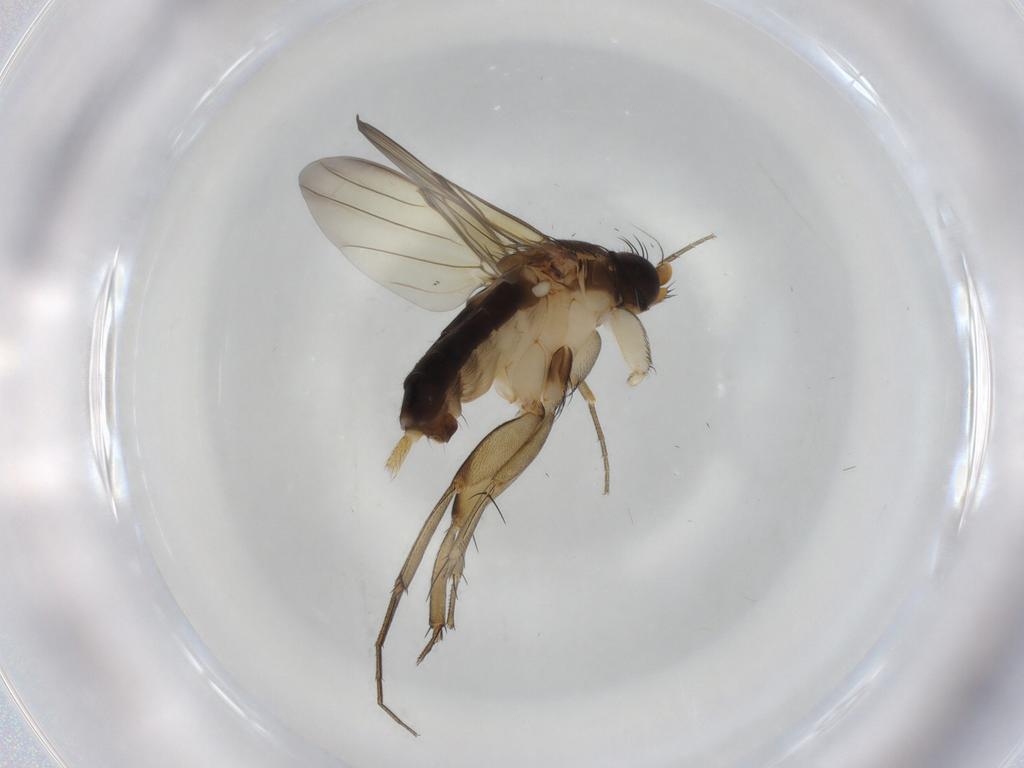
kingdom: Animalia
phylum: Arthropoda
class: Insecta
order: Diptera
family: Phoridae
